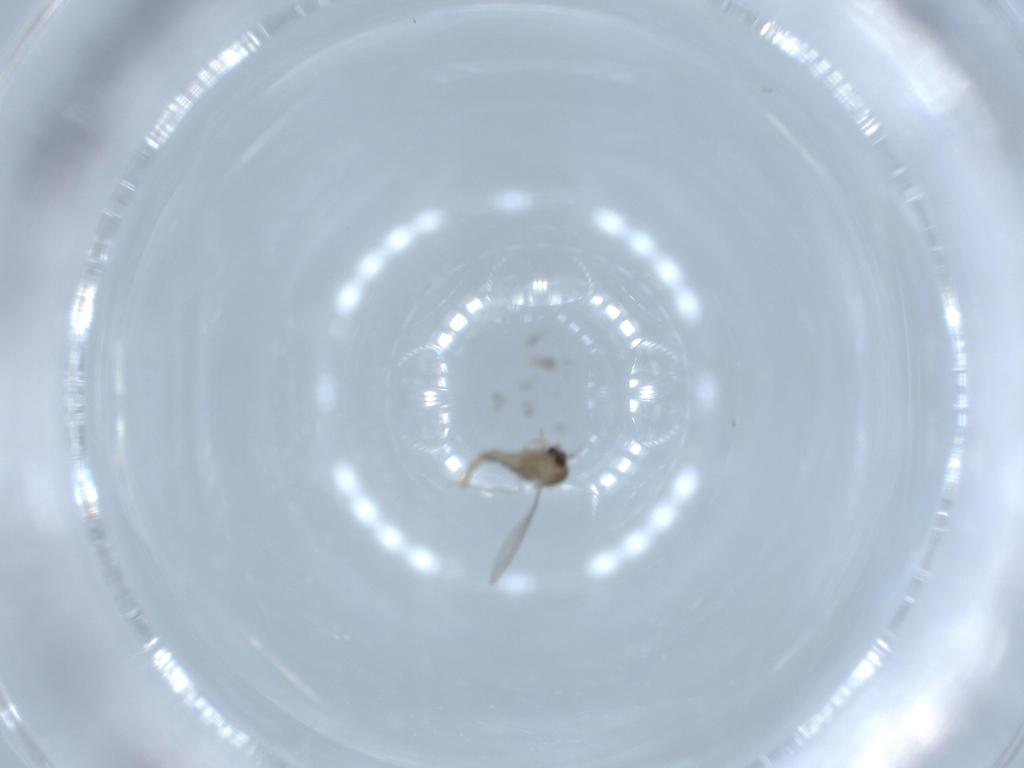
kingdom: Animalia
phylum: Arthropoda
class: Insecta
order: Diptera
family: Cecidomyiidae
